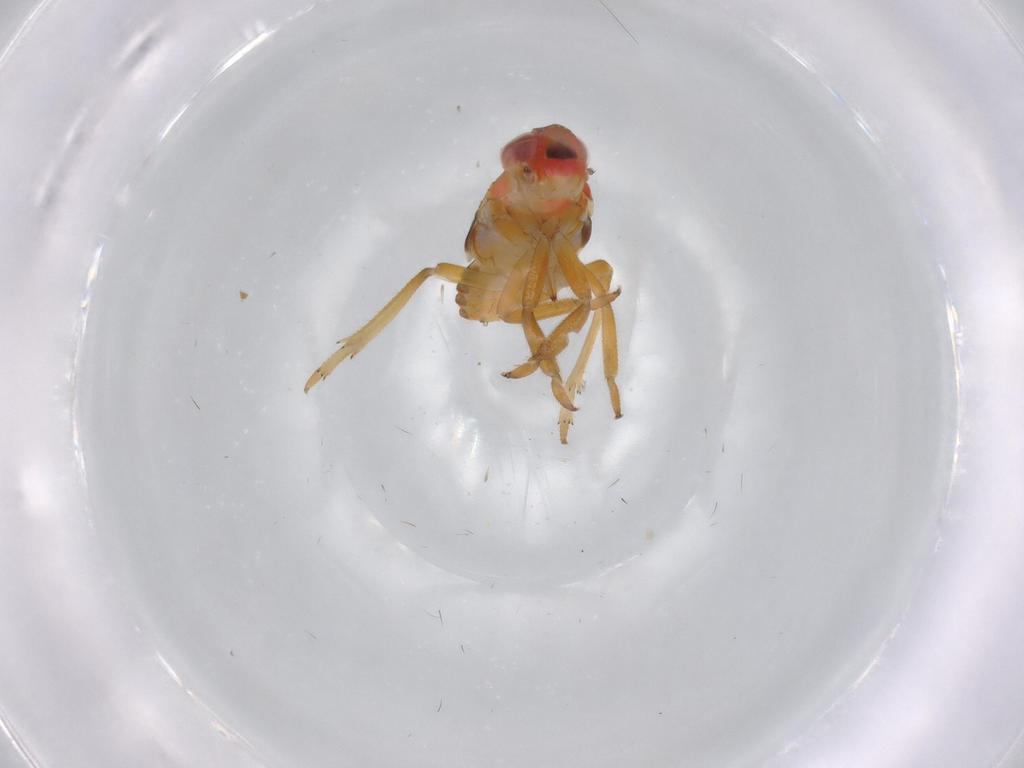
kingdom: Animalia
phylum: Arthropoda
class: Insecta
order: Hemiptera
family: Issidae
